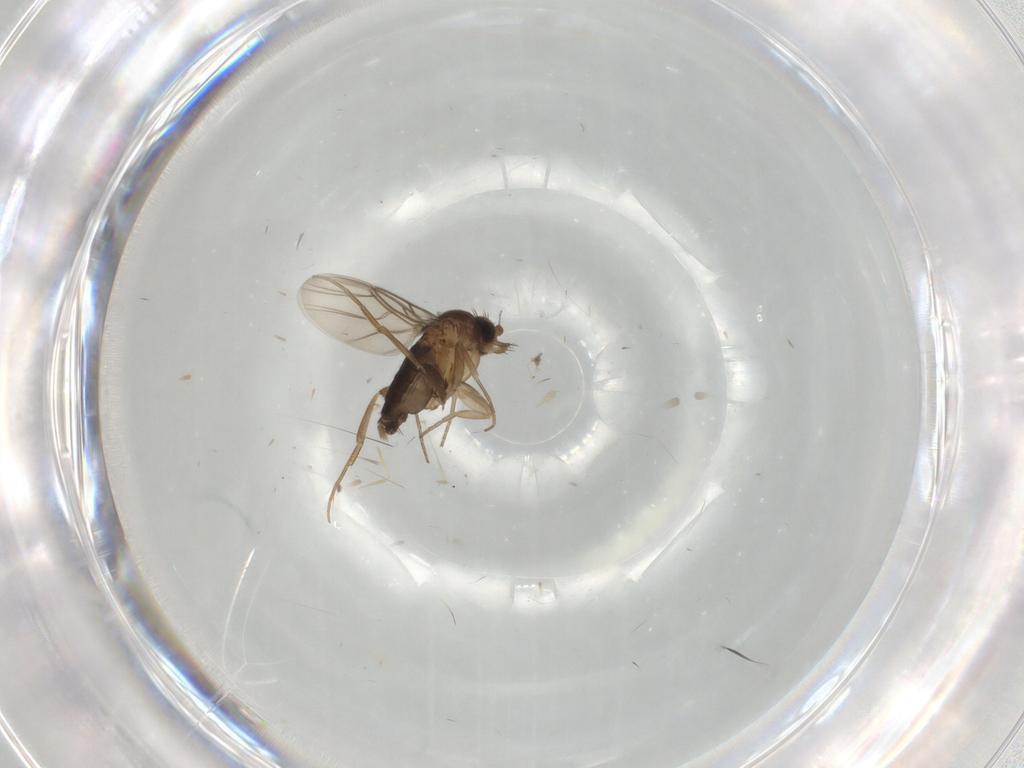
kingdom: Animalia
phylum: Arthropoda
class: Insecta
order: Diptera
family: Phoridae
